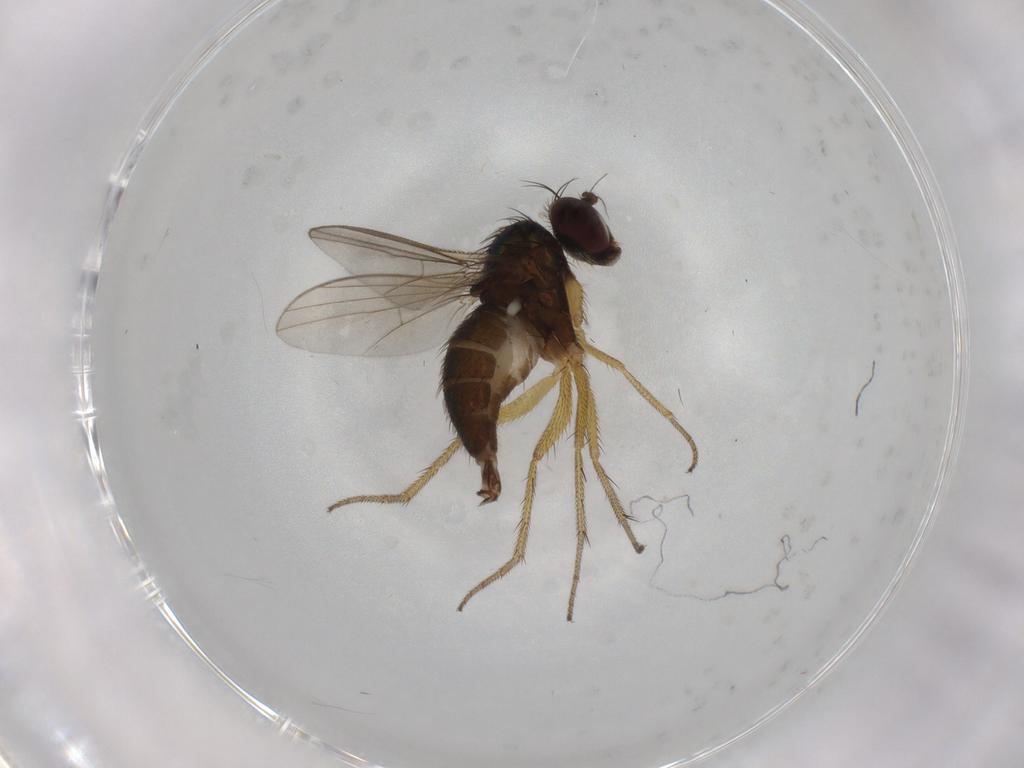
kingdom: Animalia
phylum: Arthropoda
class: Insecta
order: Diptera
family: Dolichopodidae
